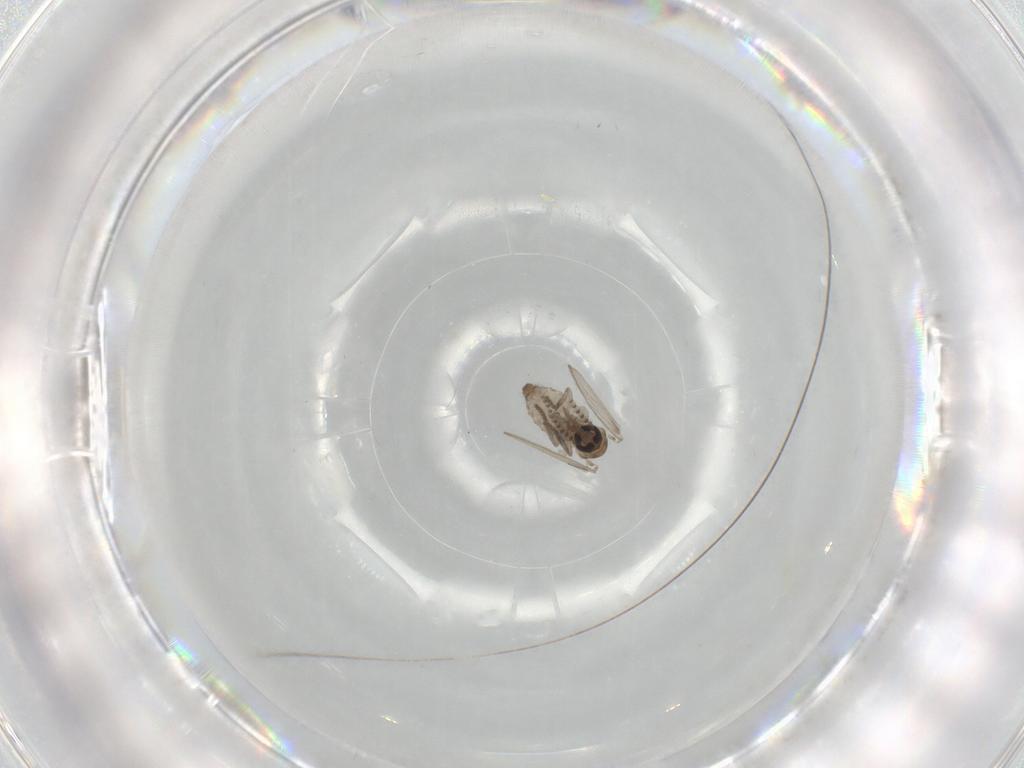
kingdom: Animalia
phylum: Arthropoda
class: Insecta
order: Diptera
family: Psychodidae
